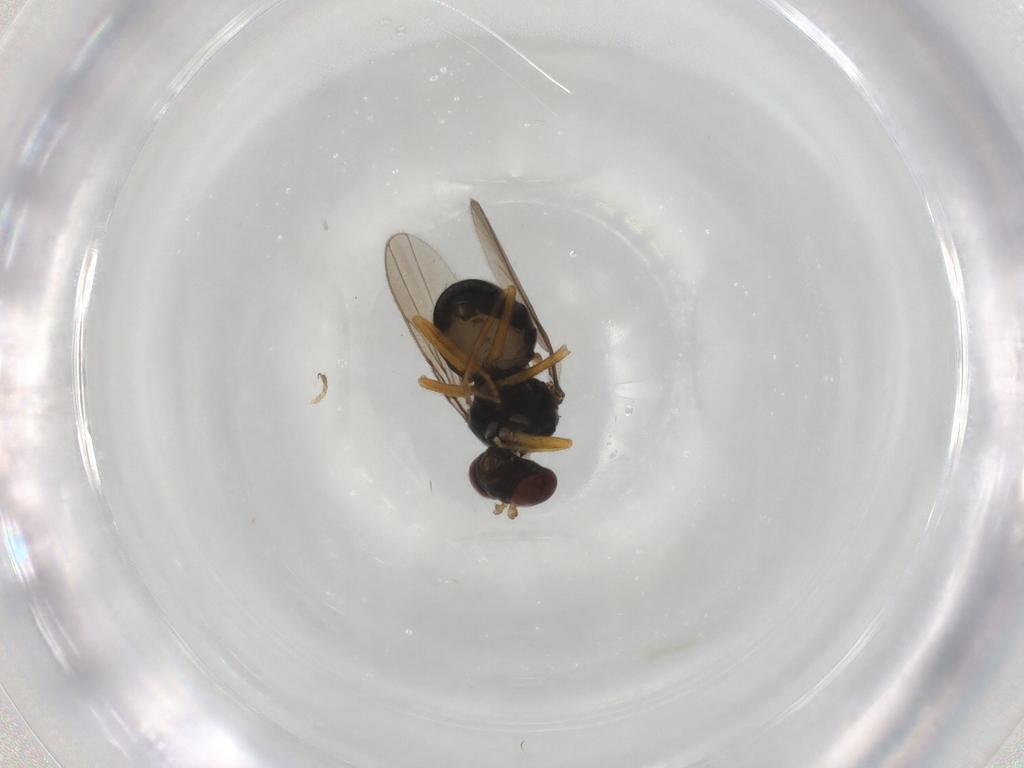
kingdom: Animalia
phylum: Arthropoda
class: Insecta
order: Diptera
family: Ephydridae
